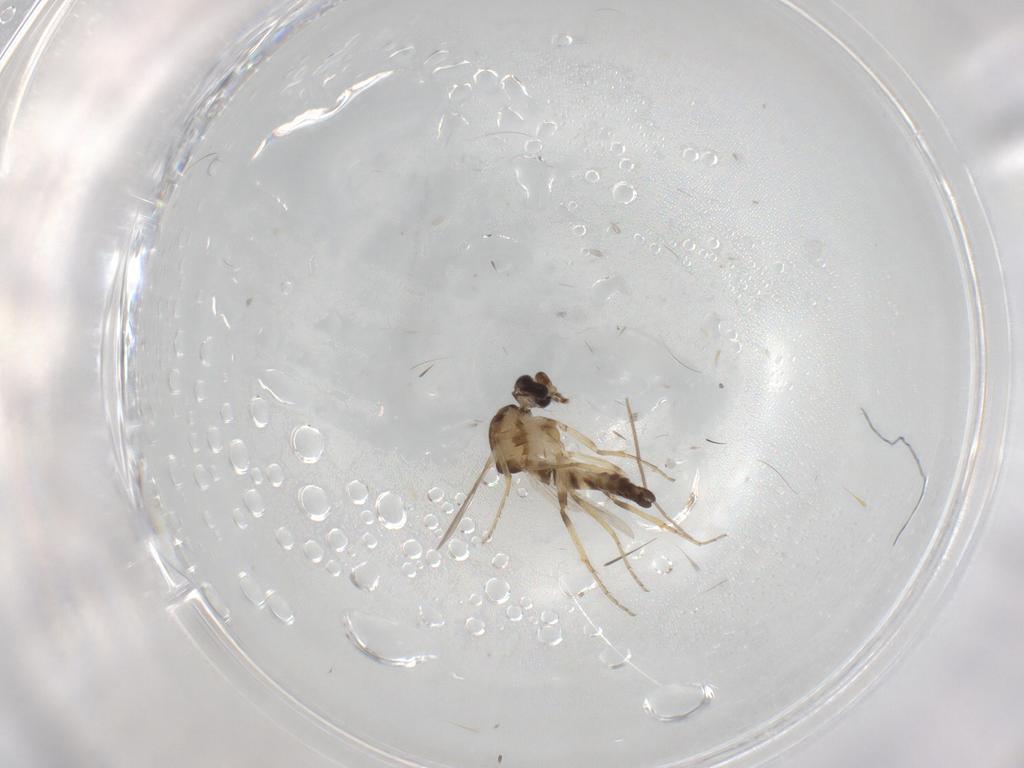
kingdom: Animalia
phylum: Arthropoda
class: Insecta
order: Diptera
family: Ceratopogonidae
